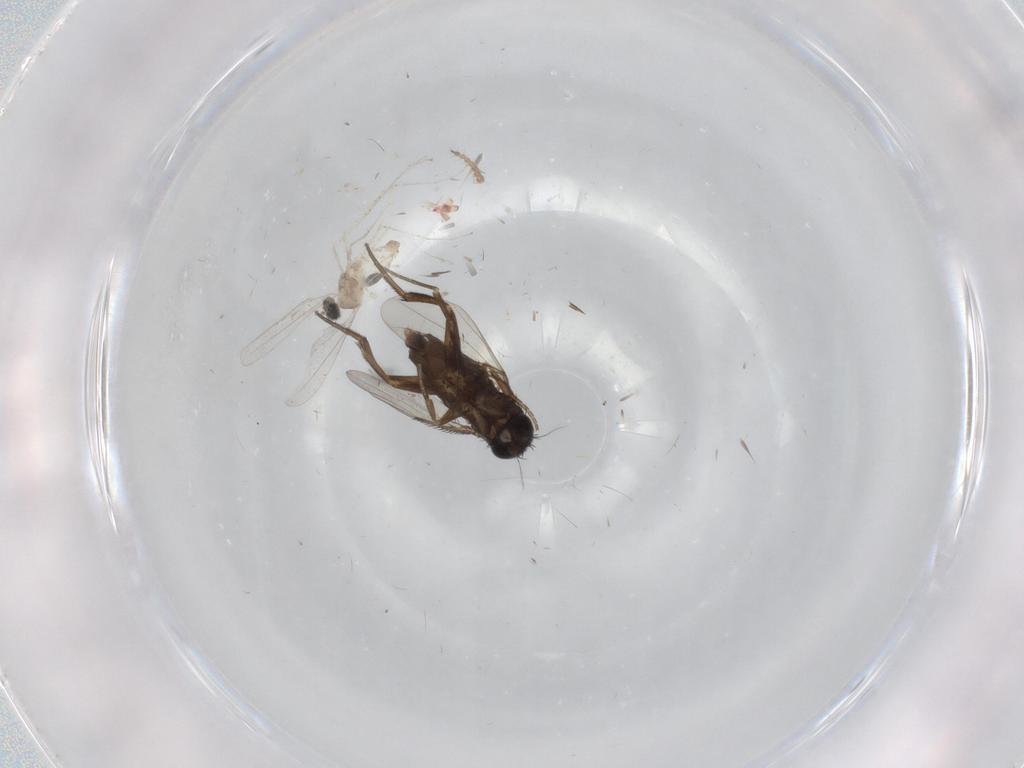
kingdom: Animalia
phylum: Arthropoda
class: Insecta
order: Diptera
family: Phoridae
